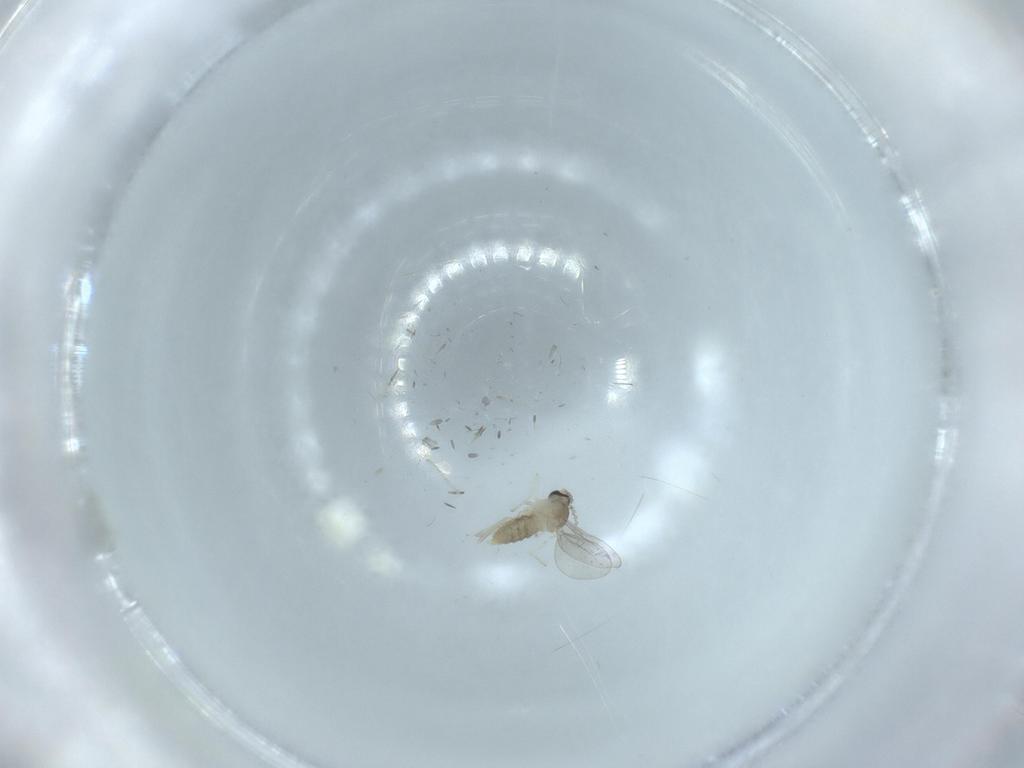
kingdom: Animalia
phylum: Arthropoda
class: Insecta
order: Diptera
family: Cecidomyiidae
